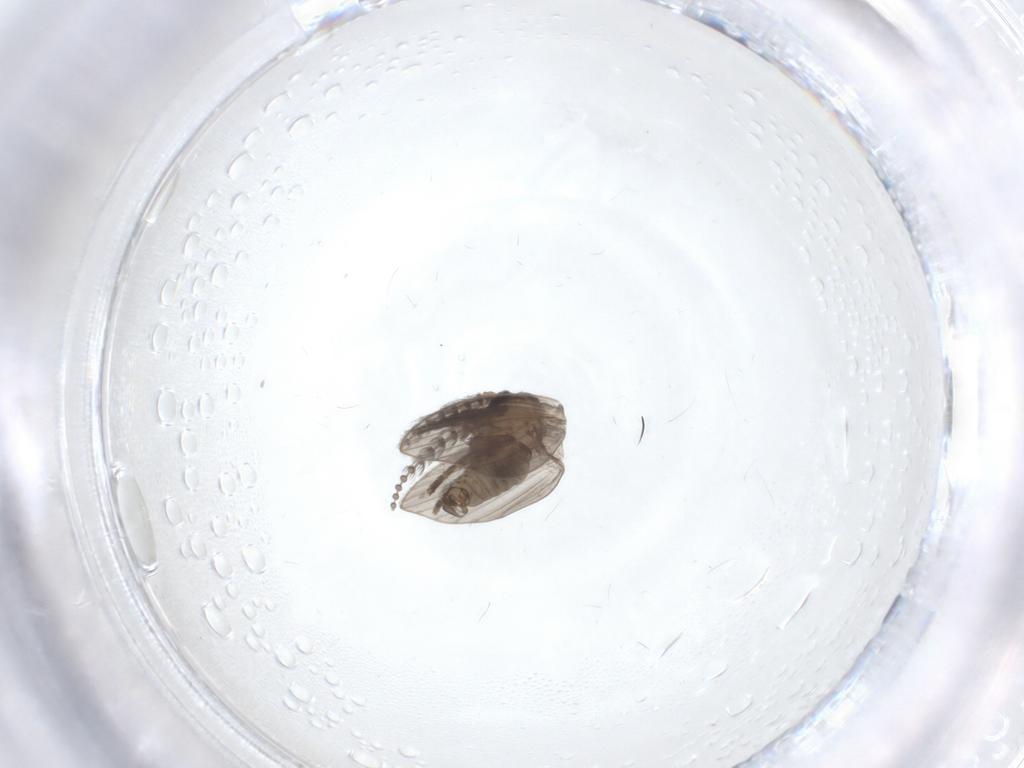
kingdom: Animalia
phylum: Arthropoda
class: Insecta
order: Diptera
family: Psychodidae
